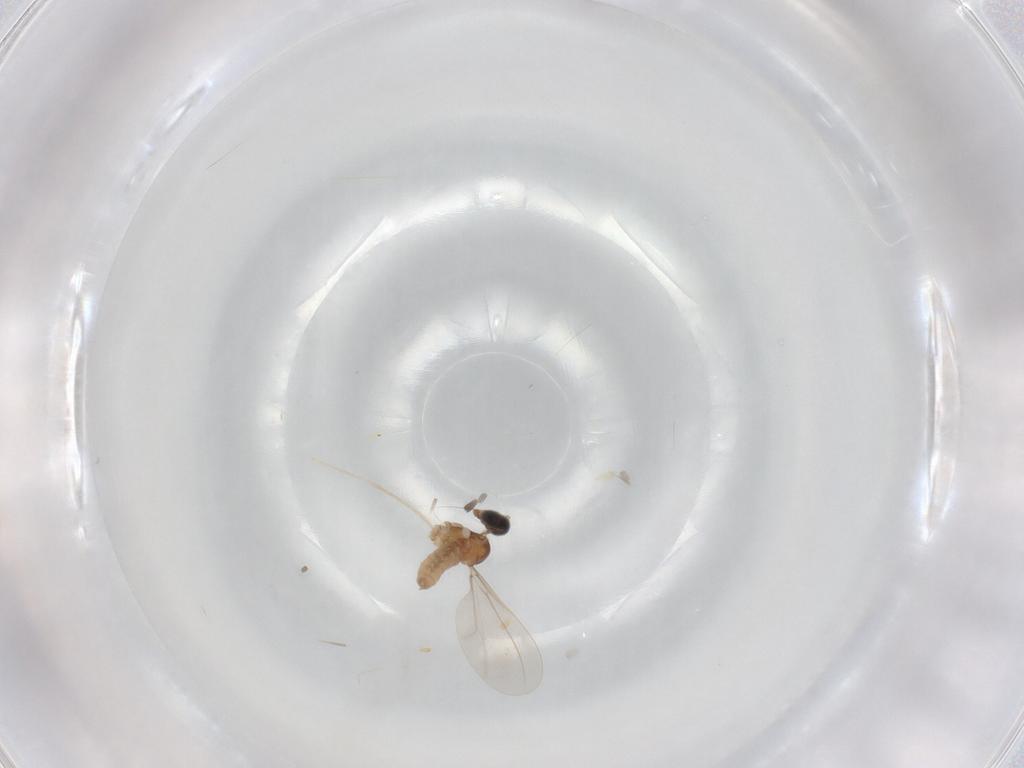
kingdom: Animalia
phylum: Arthropoda
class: Insecta
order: Diptera
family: Cecidomyiidae
